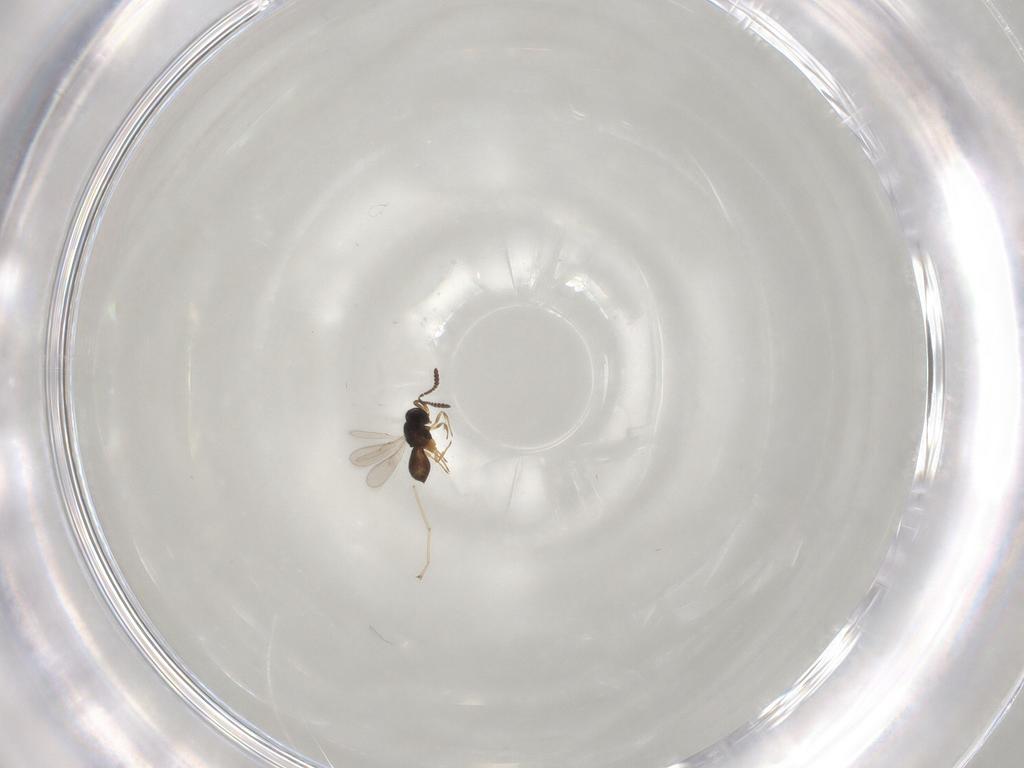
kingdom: Animalia
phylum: Arthropoda
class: Insecta
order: Hymenoptera
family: Scelionidae
